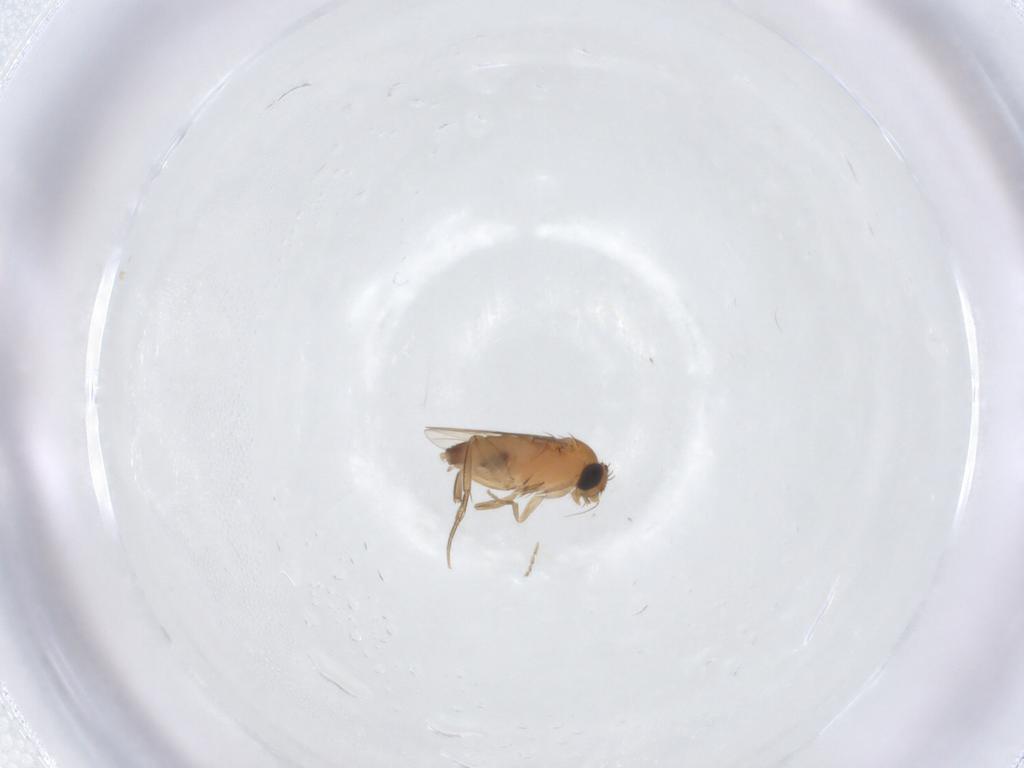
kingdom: Animalia
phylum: Arthropoda
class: Insecta
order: Diptera
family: Phoridae
